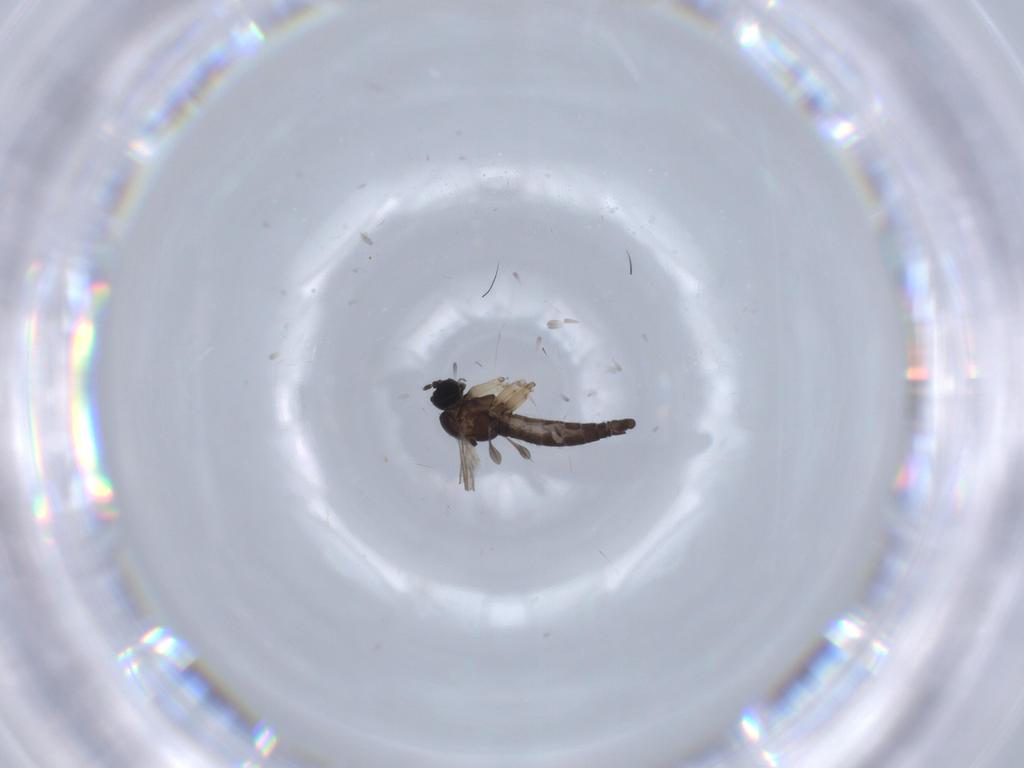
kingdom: Animalia
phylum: Arthropoda
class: Insecta
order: Diptera
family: Sciaridae
